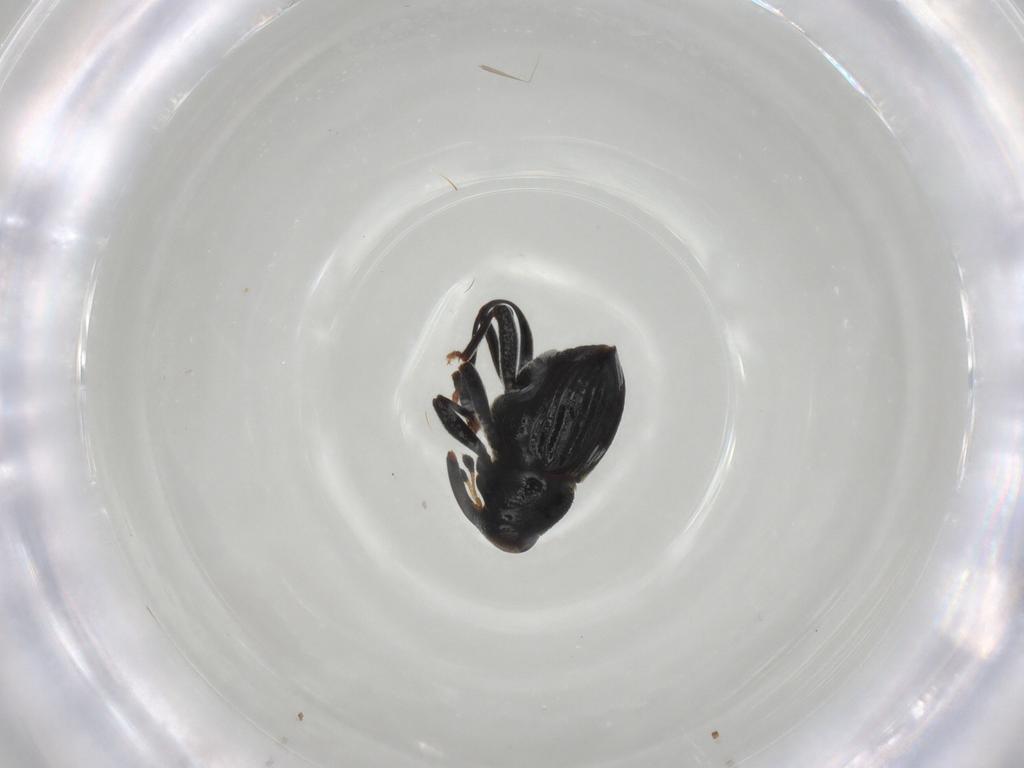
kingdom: Animalia
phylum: Arthropoda
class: Insecta
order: Coleoptera
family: Curculionidae
